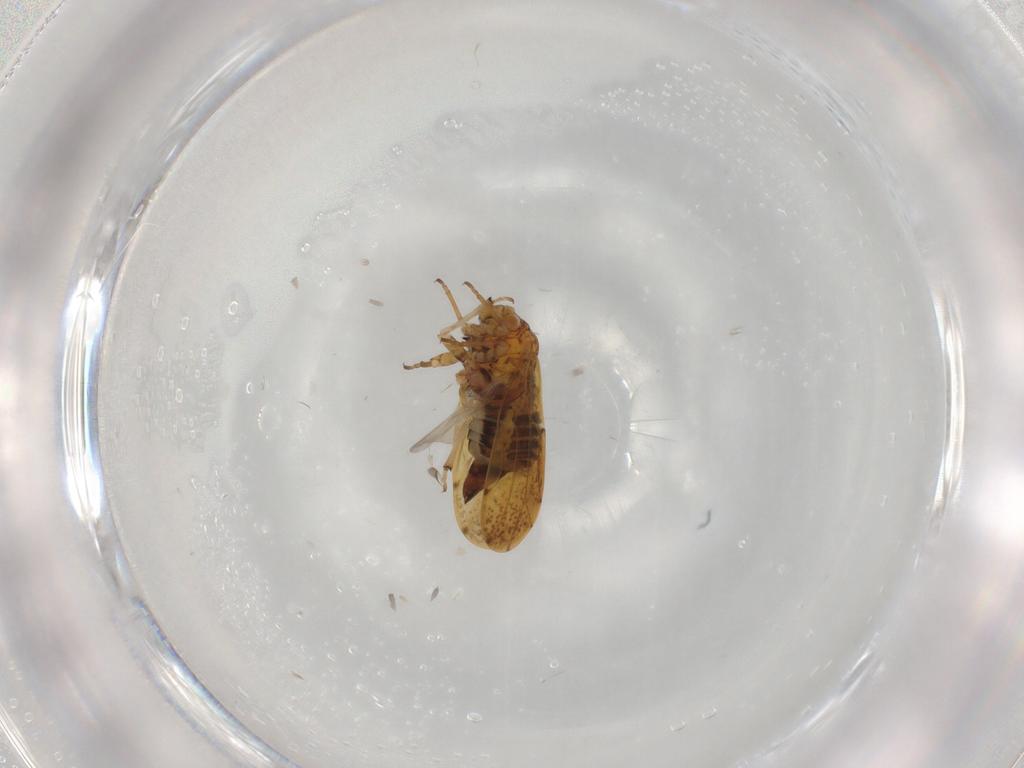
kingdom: Animalia
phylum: Arthropoda
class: Insecta
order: Hemiptera
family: Liviidae
